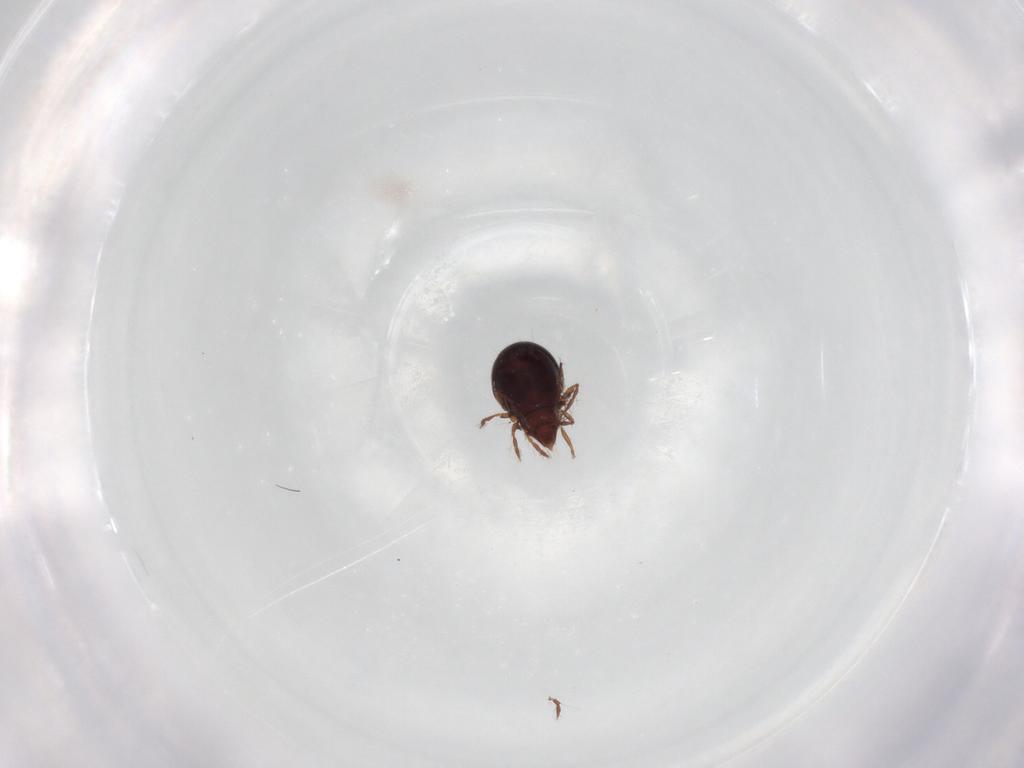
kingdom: Animalia
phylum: Arthropoda
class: Arachnida
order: Sarcoptiformes
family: Ceratoppiidae
